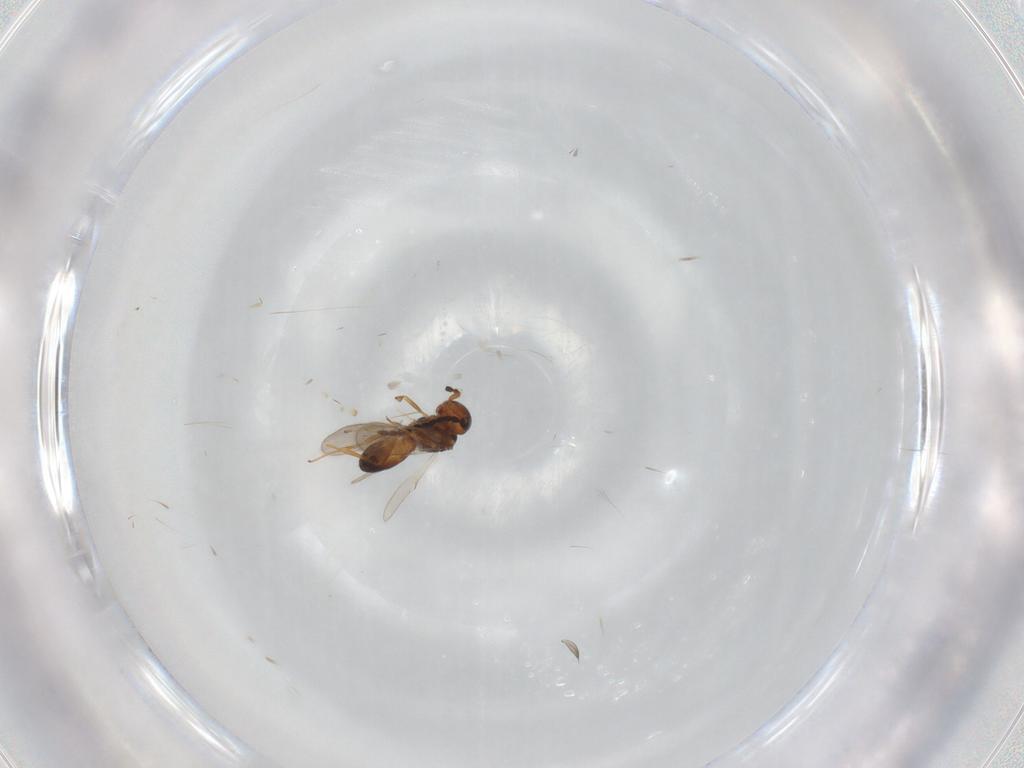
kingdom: Animalia
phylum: Arthropoda
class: Insecta
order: Hymenoptera
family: Scelionidae
